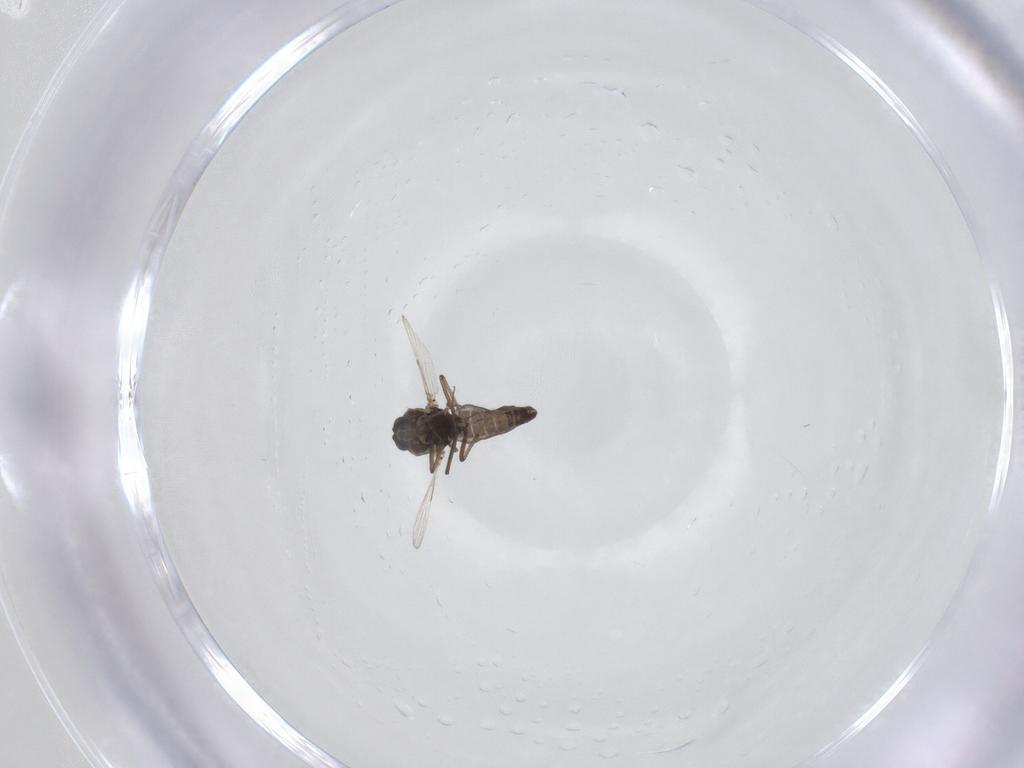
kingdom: Animalia
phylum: Arthropoda
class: Insecta
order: Diptera
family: Ceratopogonidae
